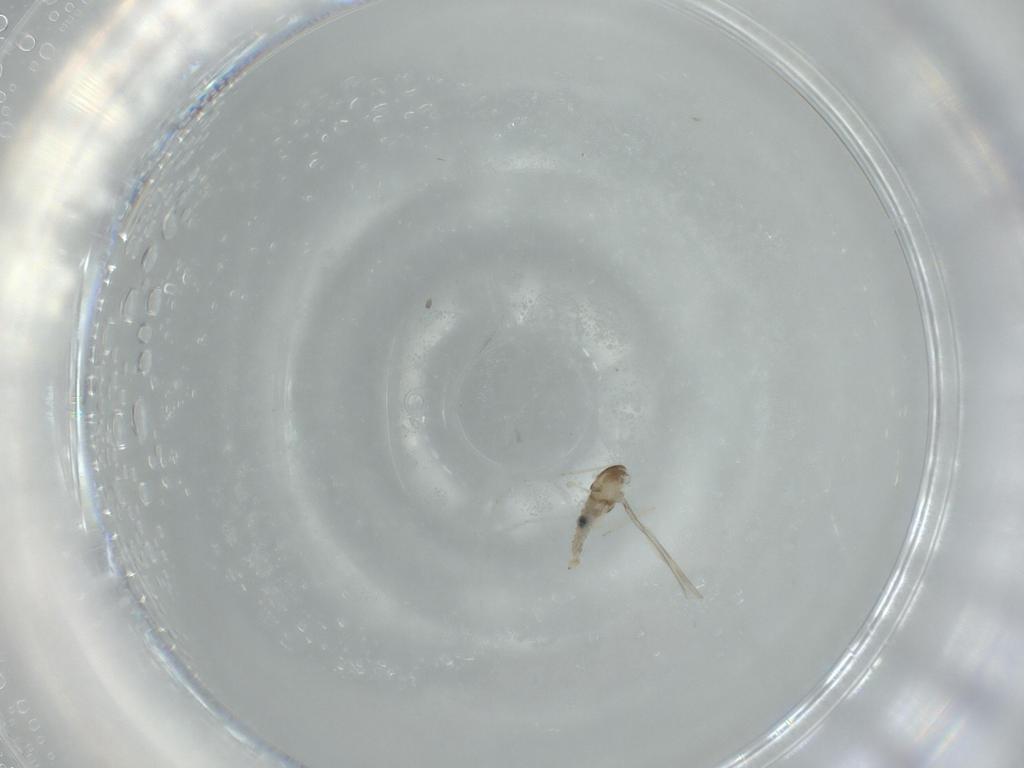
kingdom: Animalia
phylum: Arthropoda
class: Insecta
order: Diptera
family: Cecidomyiidae
